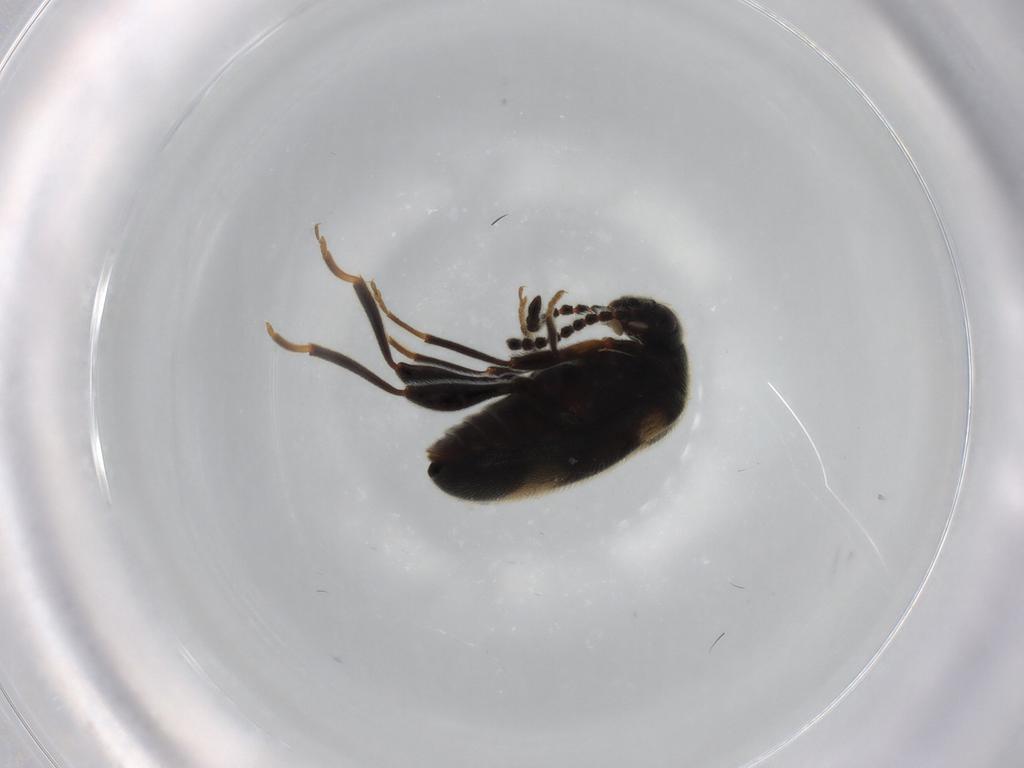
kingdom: Animalia
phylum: Arthropoda
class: Insecta
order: Coleoptera
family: Aderidae
